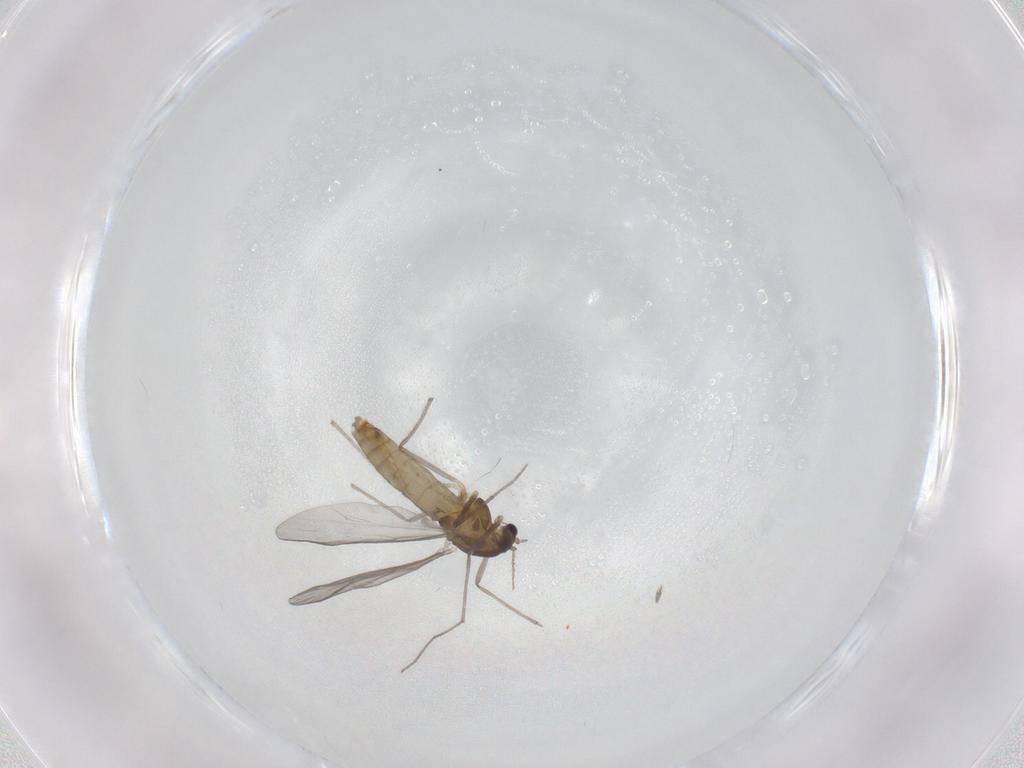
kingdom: Animalia
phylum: Arthropoda
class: Insecta
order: Diptera
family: Chironomidae
